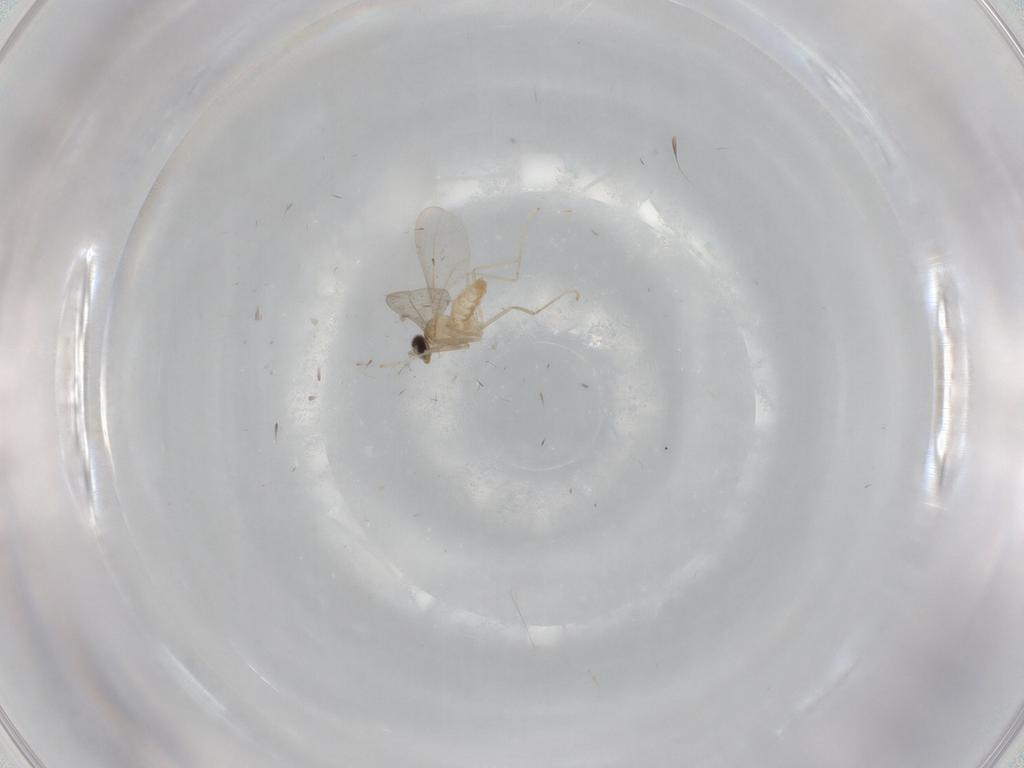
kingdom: Animalia
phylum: Arthropoda
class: Insecta
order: Diptera
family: Cecidomyiidae
